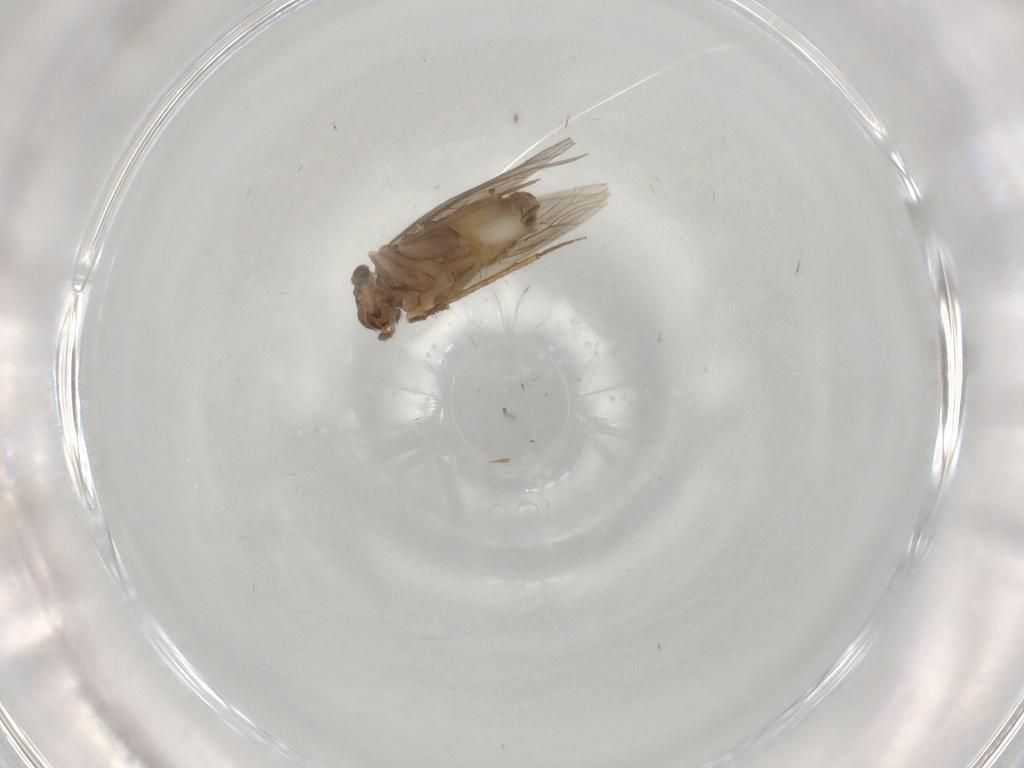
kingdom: Animalia
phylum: Arthropoda
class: Insecta
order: Psocodea
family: Lepidopsocidae
